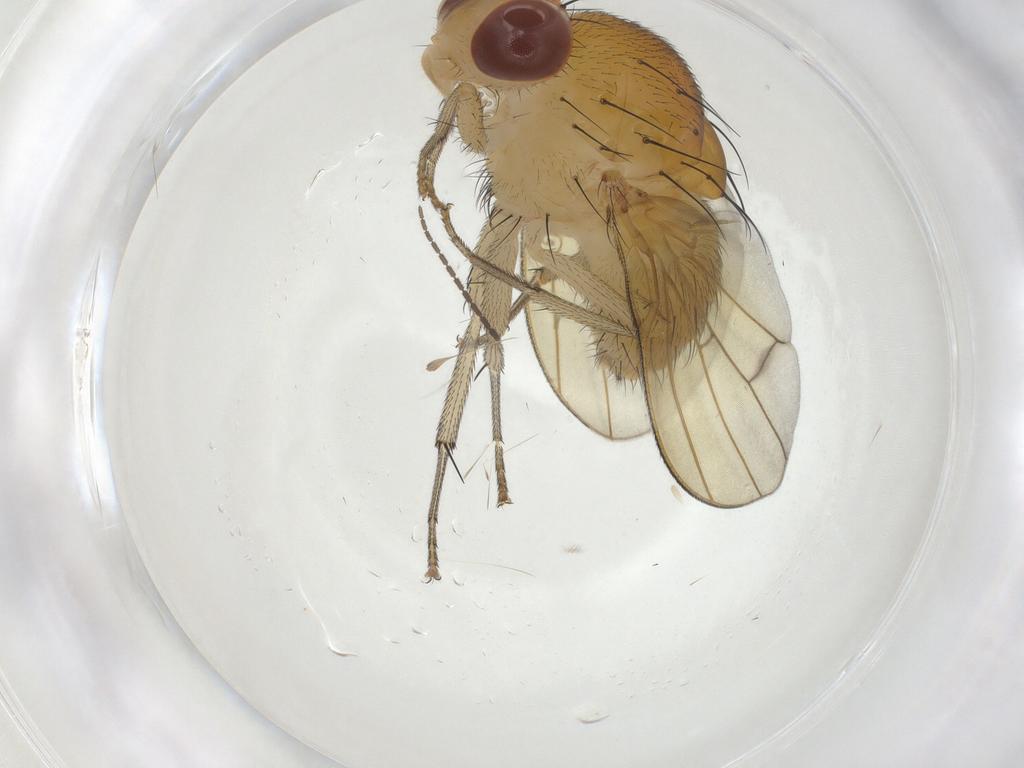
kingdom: Animalia
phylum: Arthropoda
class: Insecta
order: Diptera
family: Lauxaniidae
